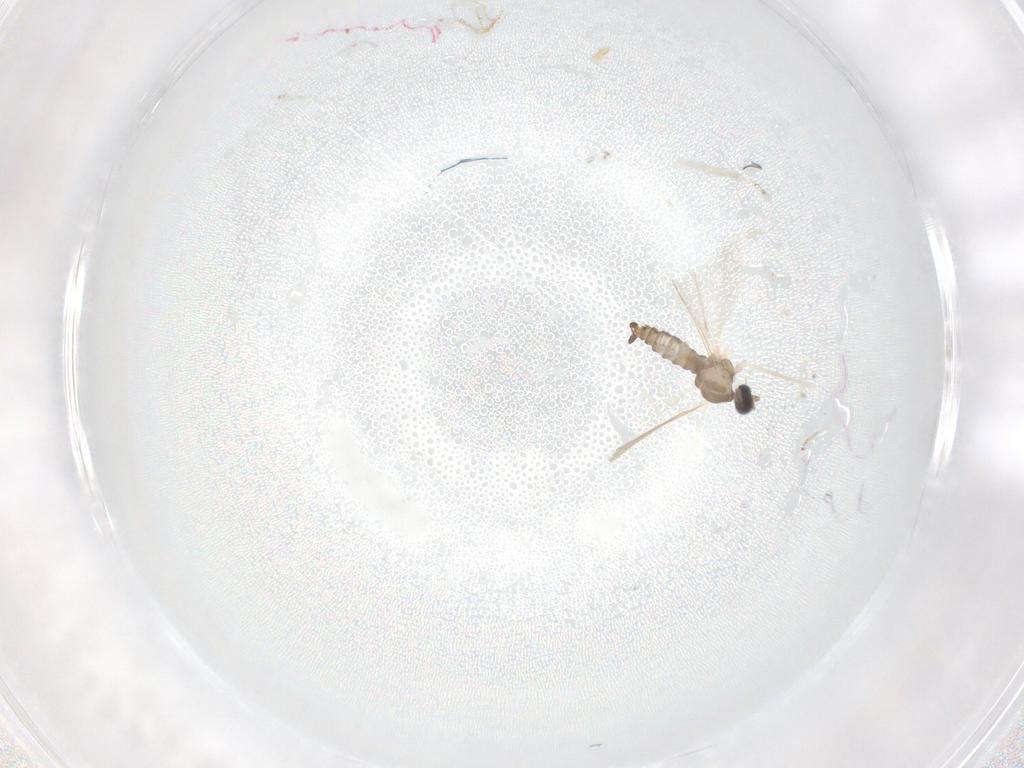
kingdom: Animalia
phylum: Arthropoda
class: Insecta
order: Diptera
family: Cecidomyiidae
